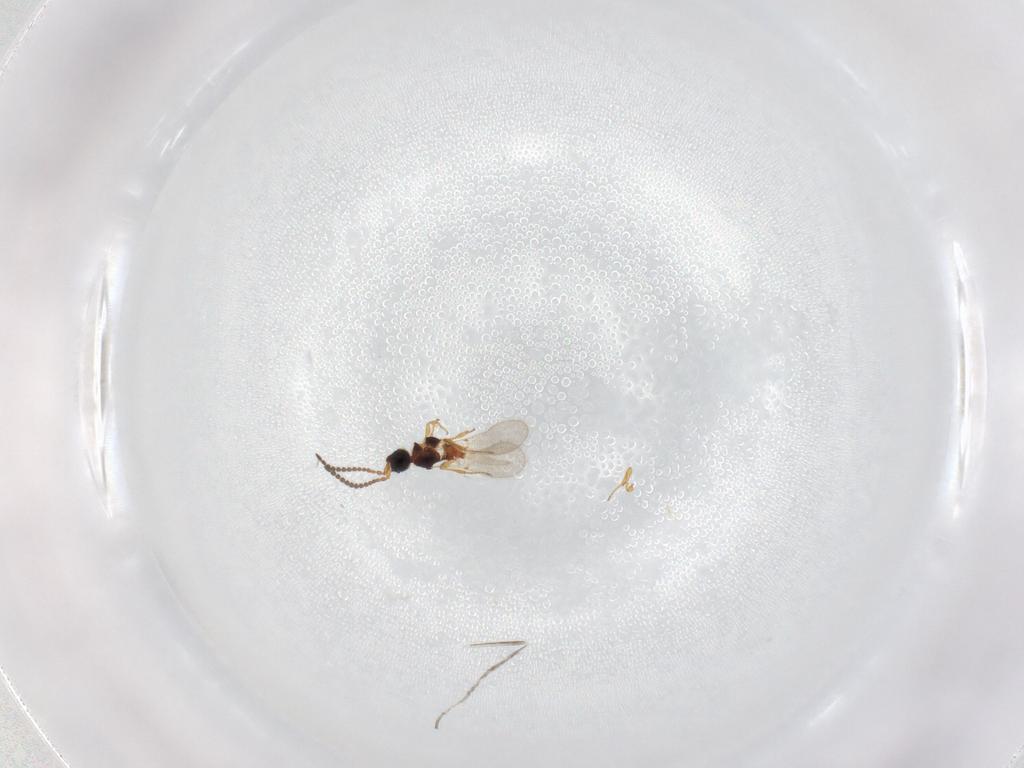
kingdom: Animalia
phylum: Arthropoda
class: Insecta
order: Hymenoptera
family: Diapriidae
